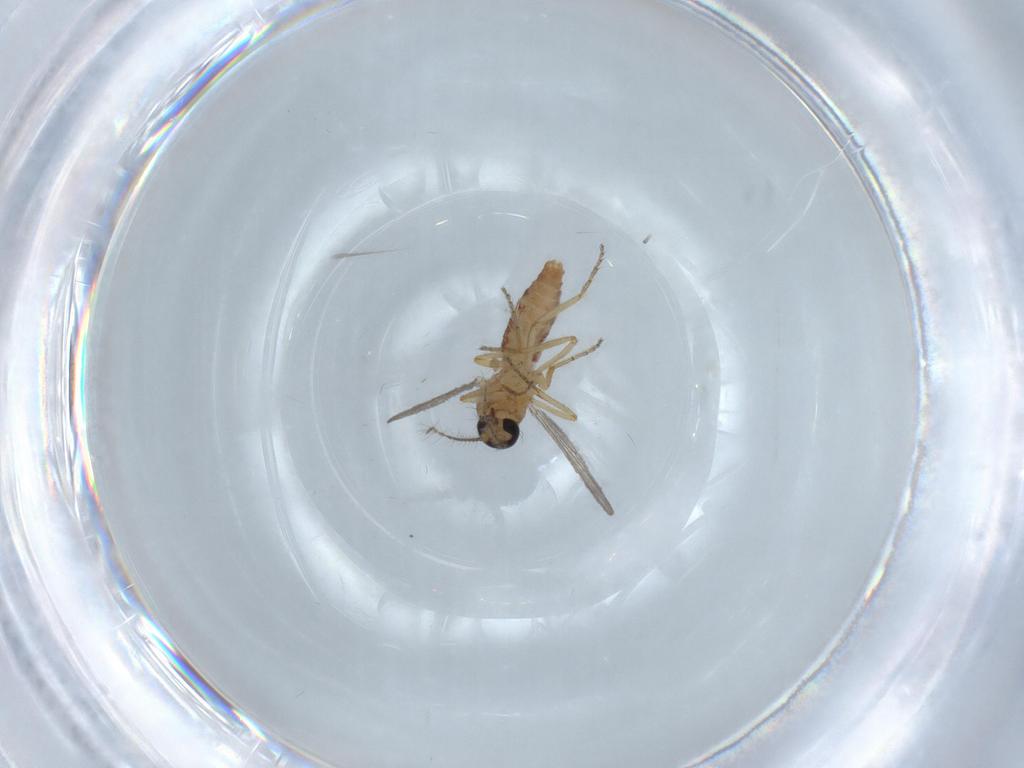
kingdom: Animalia
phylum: Arthropoda
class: Insecta
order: Diptera
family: Ceratopogonidae
